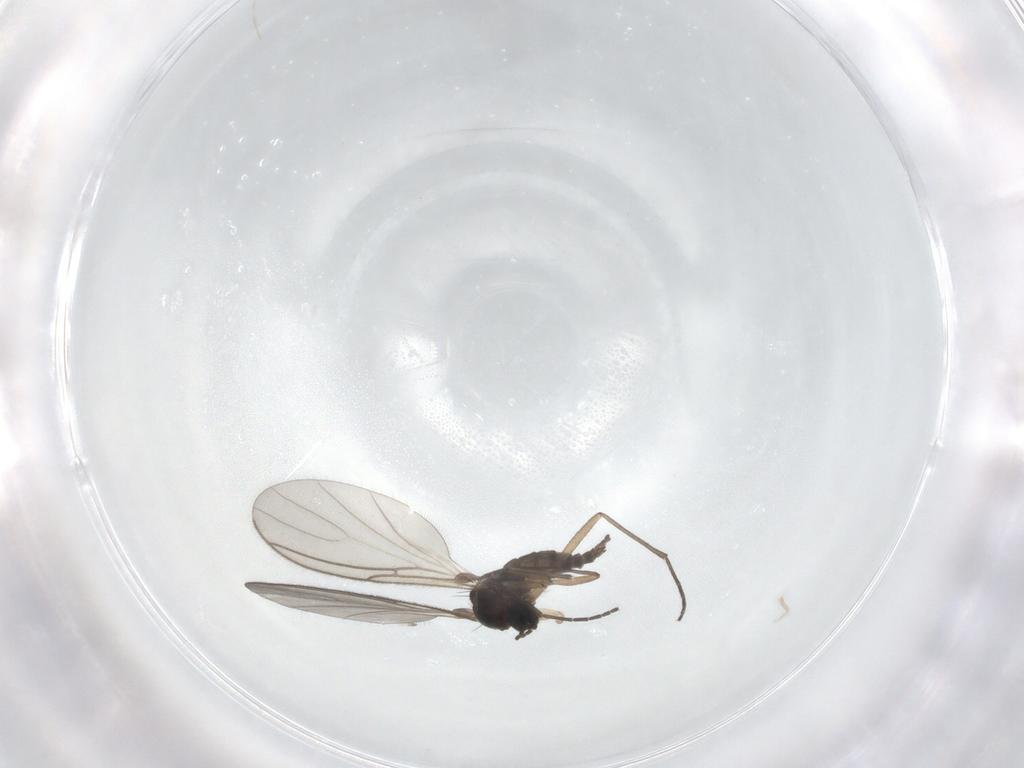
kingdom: Animalia
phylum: Arthropoda
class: Insecta
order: Diptera
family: Sciaridae
